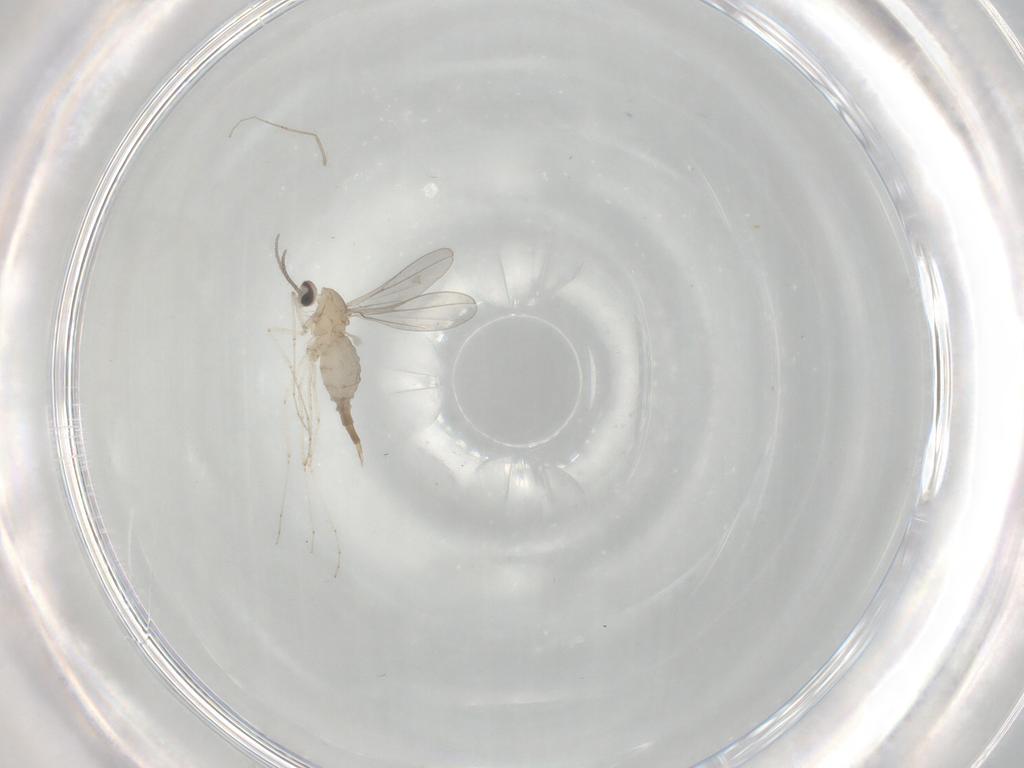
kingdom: Animalia
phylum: Arthropoda
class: Insecta
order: Diptera
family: Cecidomyiidae
